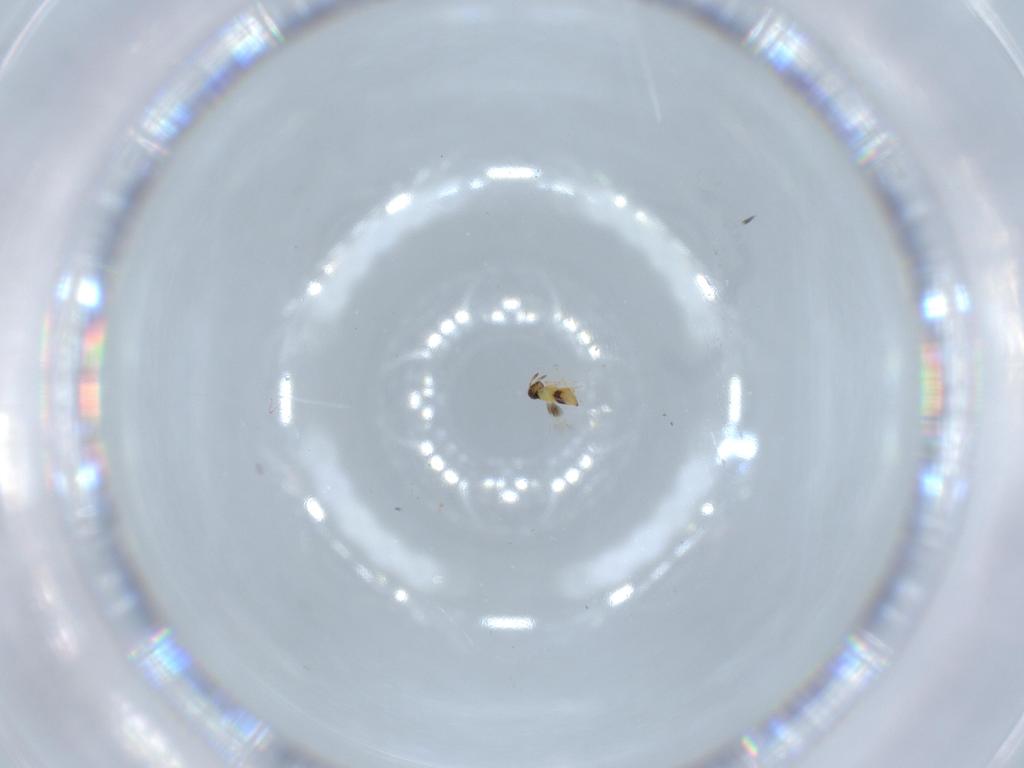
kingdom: Animalia
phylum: Arthropoda
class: Insecta
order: Hymenoptera
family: Scelionidae
